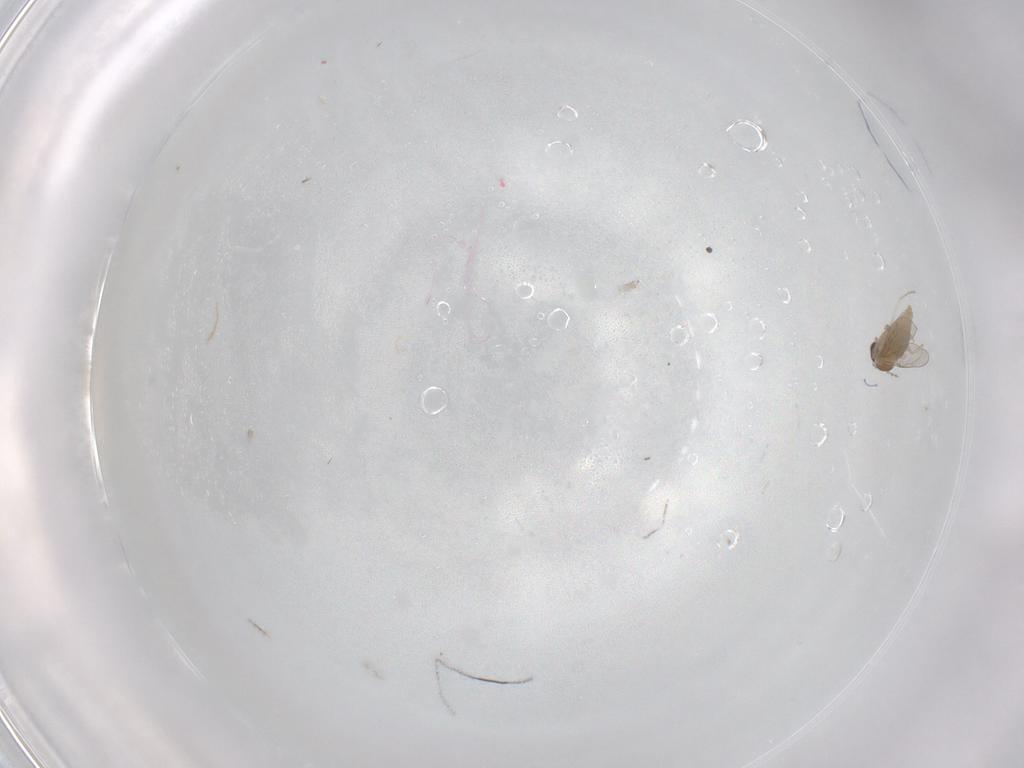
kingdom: Animalia
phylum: Arthropoda
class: Insecta
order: Diptera
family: Cecidomyiidae
